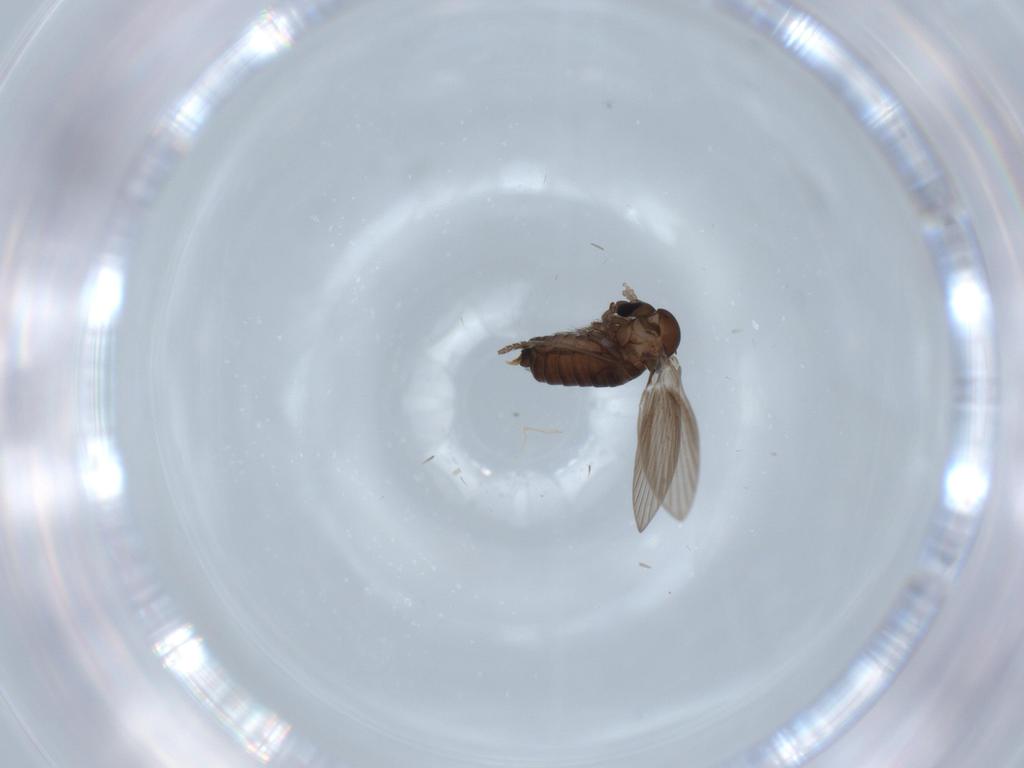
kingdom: Animalia
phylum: Arthropoda
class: Insecta
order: Diptera
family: Psychodidae
